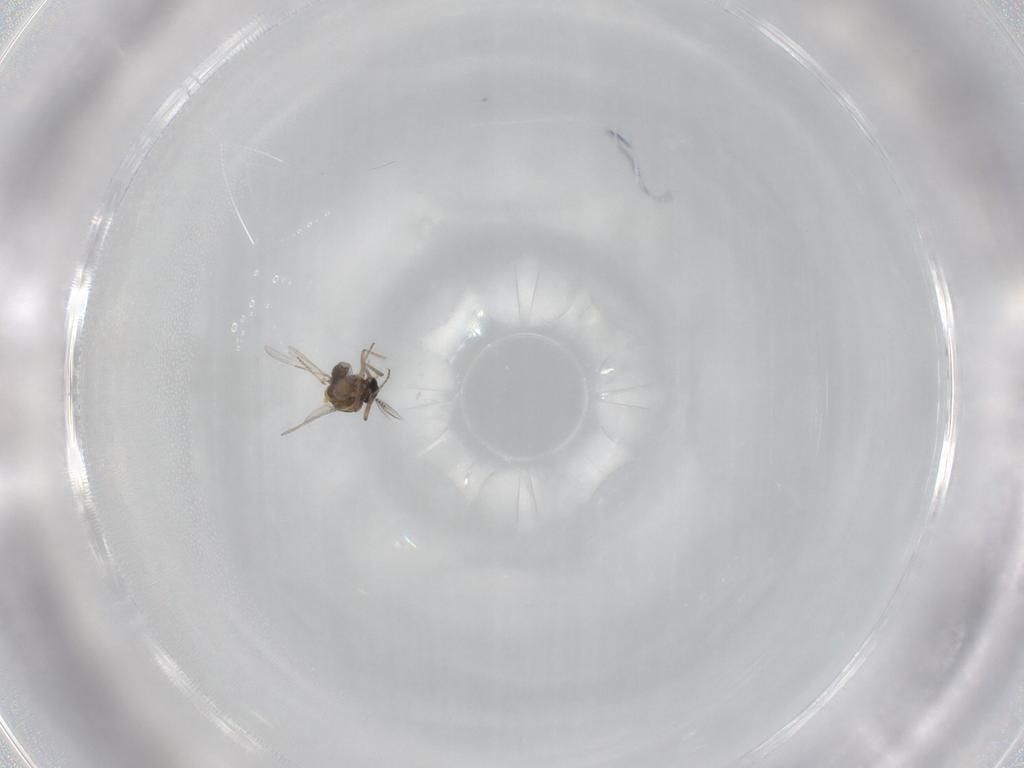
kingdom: Animalia
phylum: Arthropoda
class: Insecta
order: Diptera
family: Ceratopogonidae
